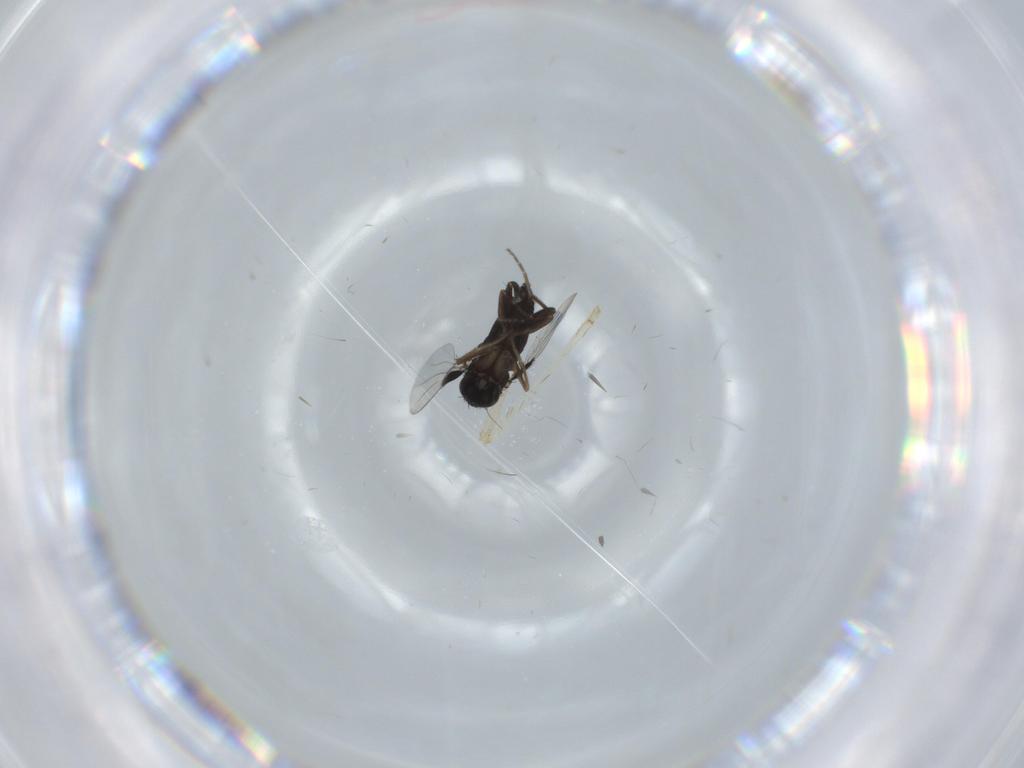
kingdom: Animalia
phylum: Arthropoda
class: Insecta
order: Diptera
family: Phoridae
